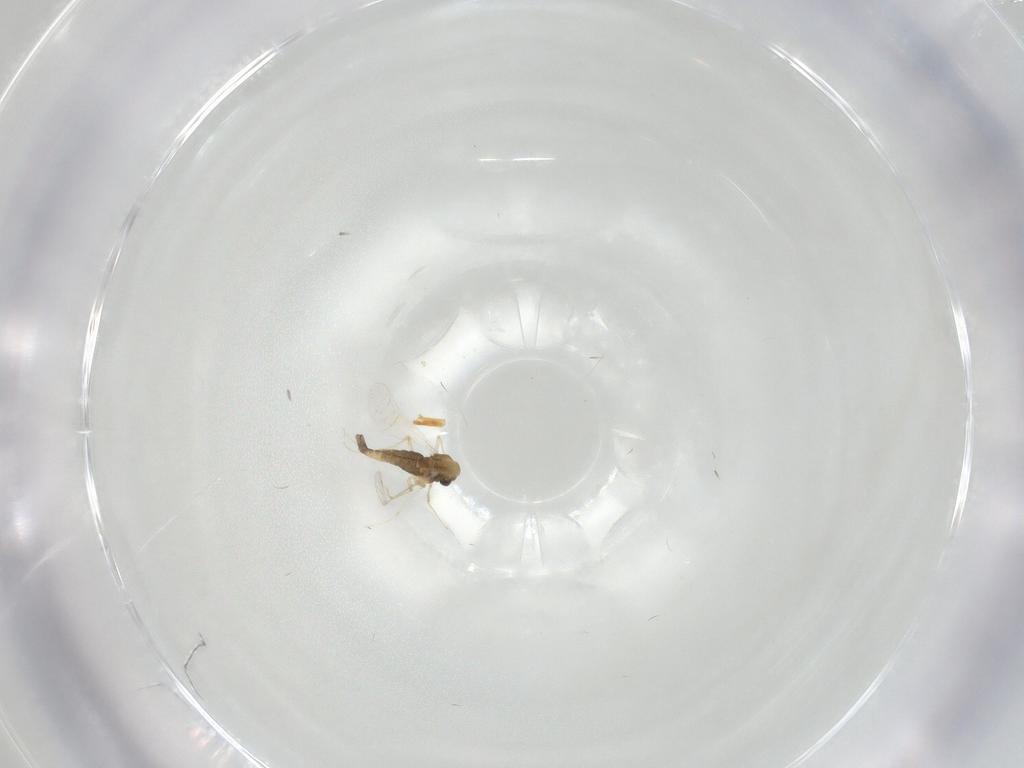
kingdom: Animalia
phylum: Arthropoda
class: Insecta
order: Diptera
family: Chironomidae
